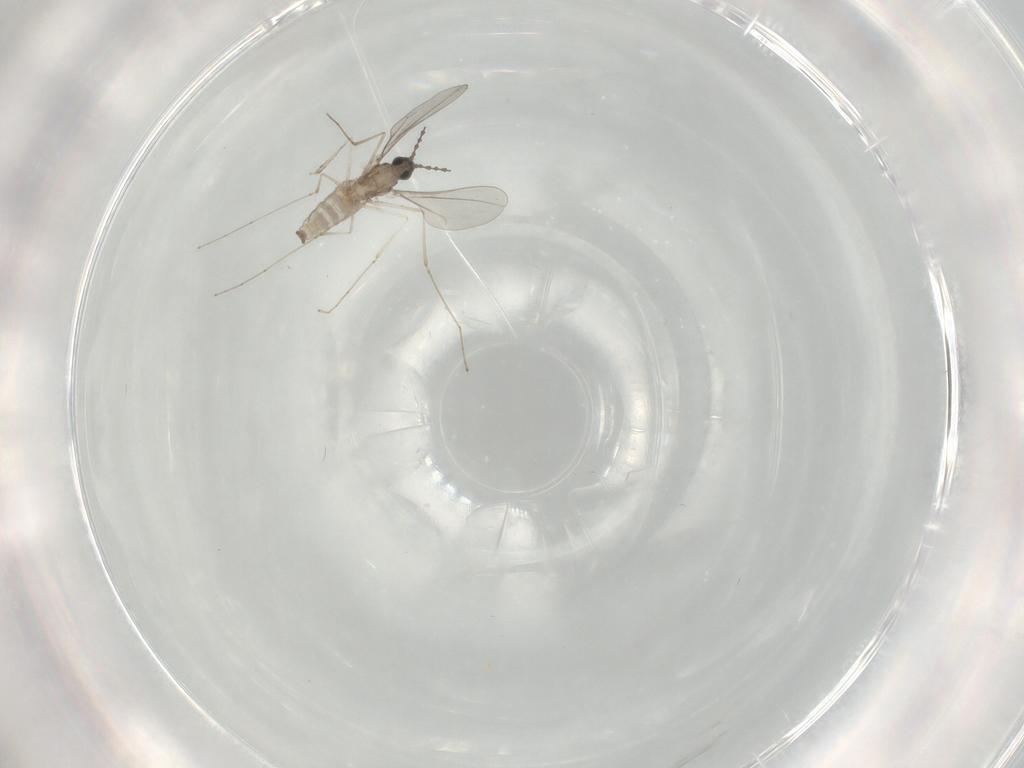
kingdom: Animalia
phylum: Arthropoda
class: Insecta
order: Diptera
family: Cecidomyiidae
